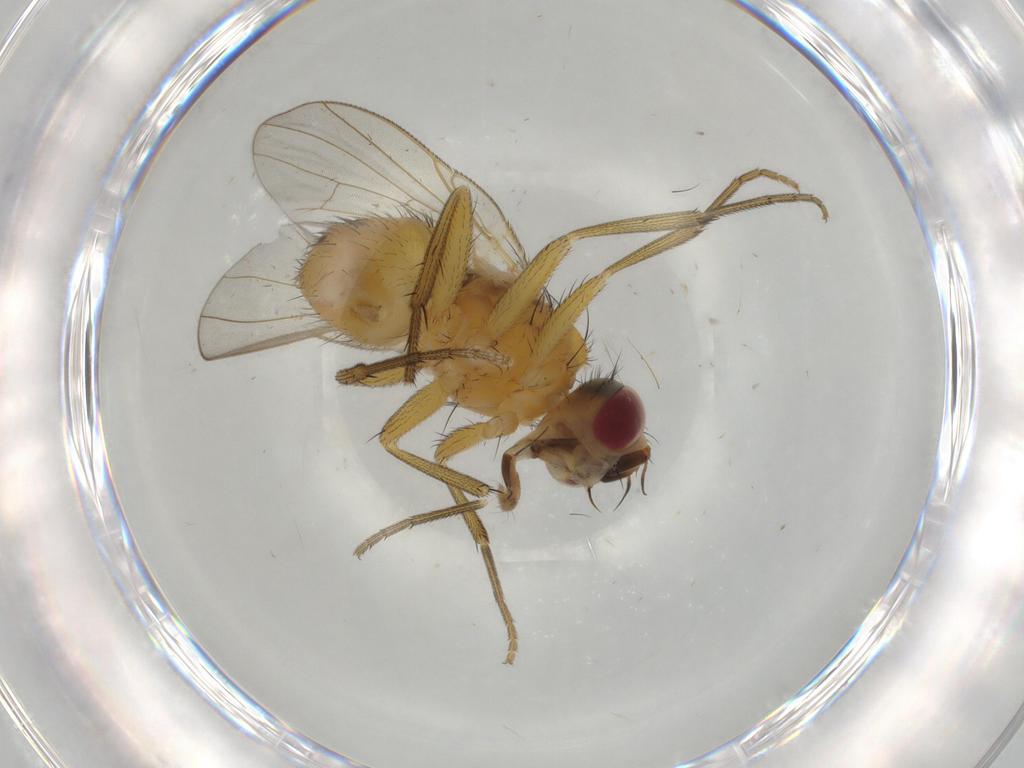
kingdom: Animalia
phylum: Arthropoda
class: Insecta
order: Diptera
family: Muscidae
